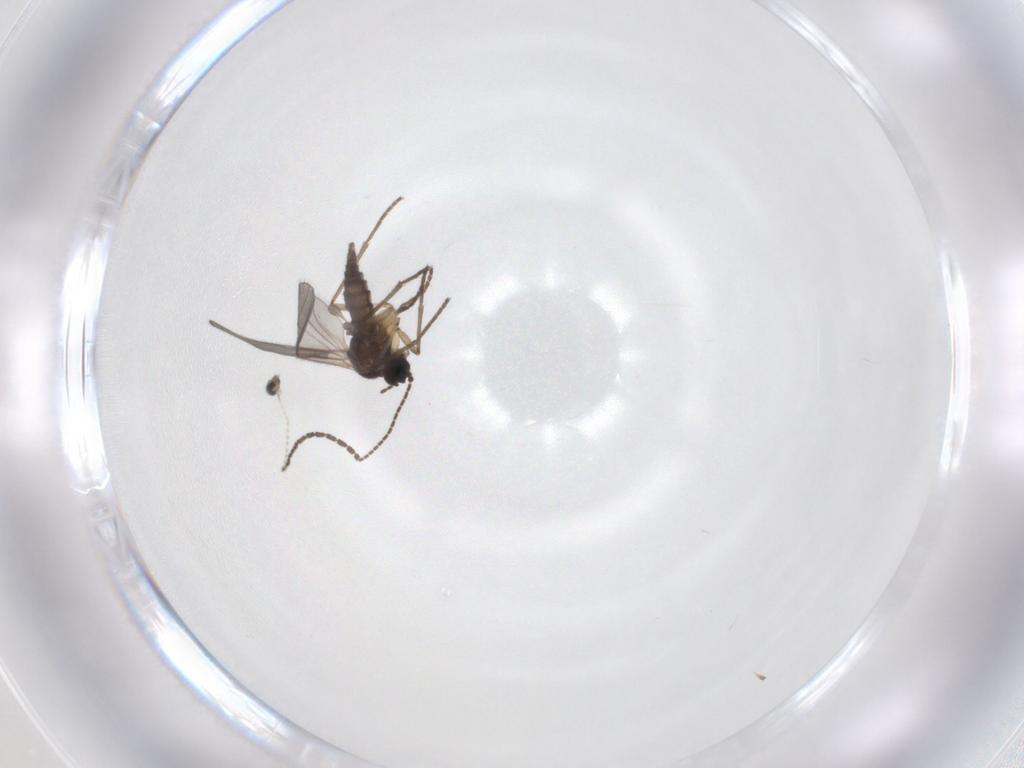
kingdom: Animalia
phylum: Arthropoda
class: Insecta
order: Diptera
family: Cecidomyiidae
